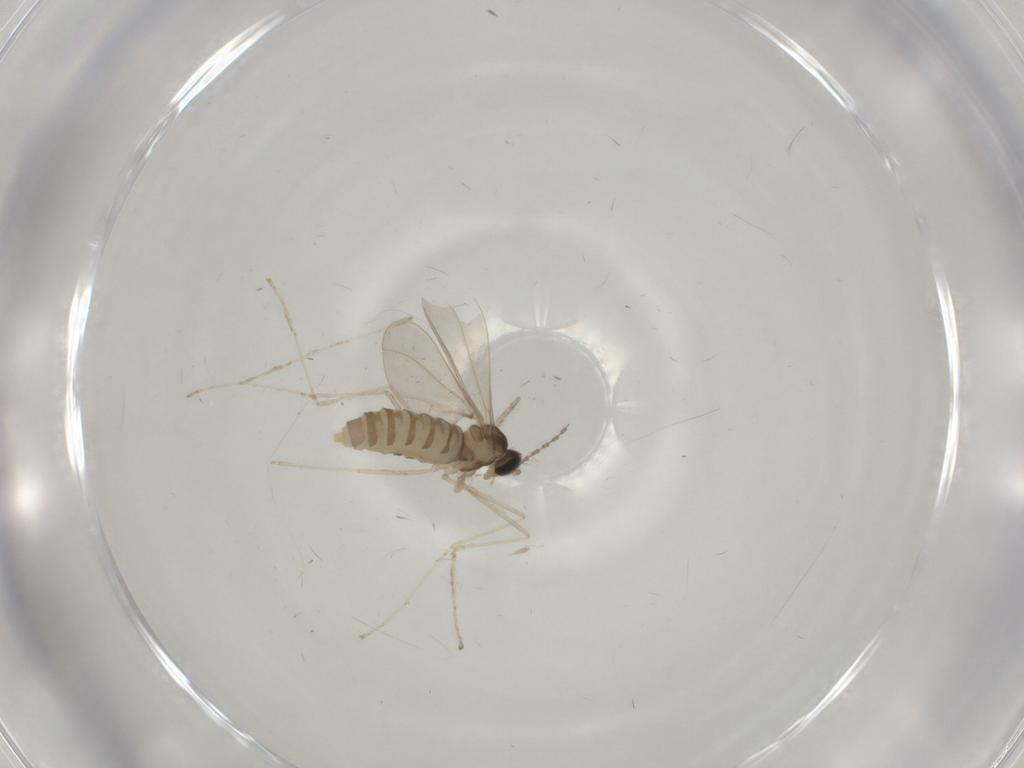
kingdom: Animalia
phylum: Arthropoda
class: Insecta
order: Diptera
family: Cecidomyiidae
